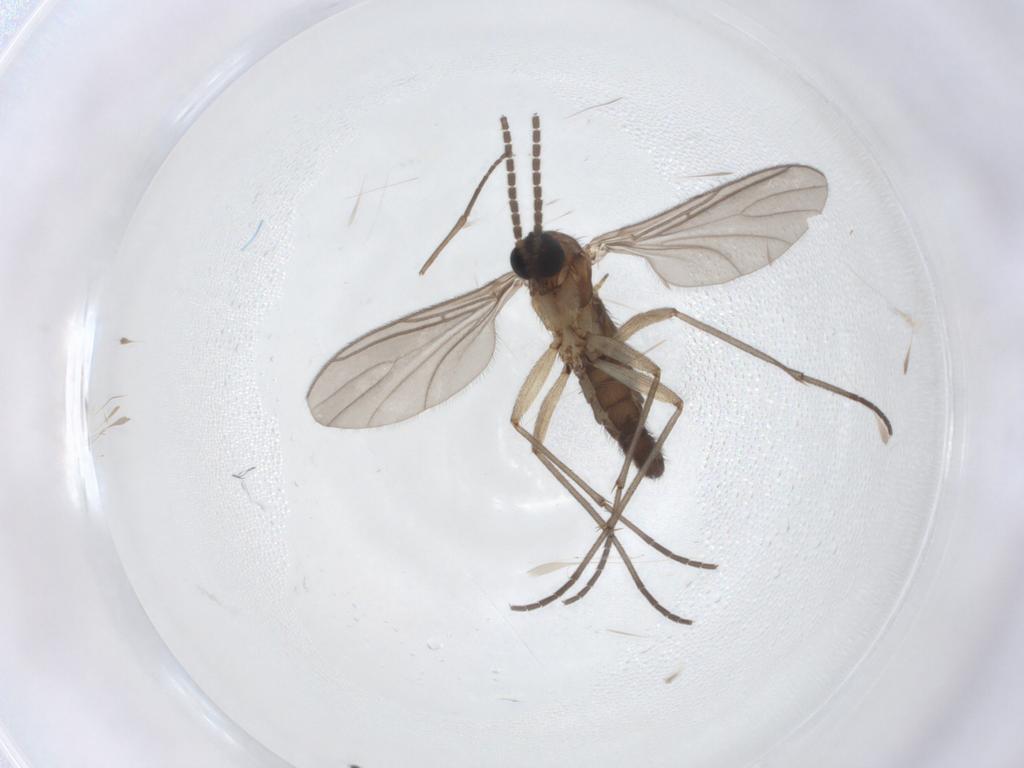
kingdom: Animalia
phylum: Arthropoda
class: Insecta
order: Diptera
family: Sciaridae
